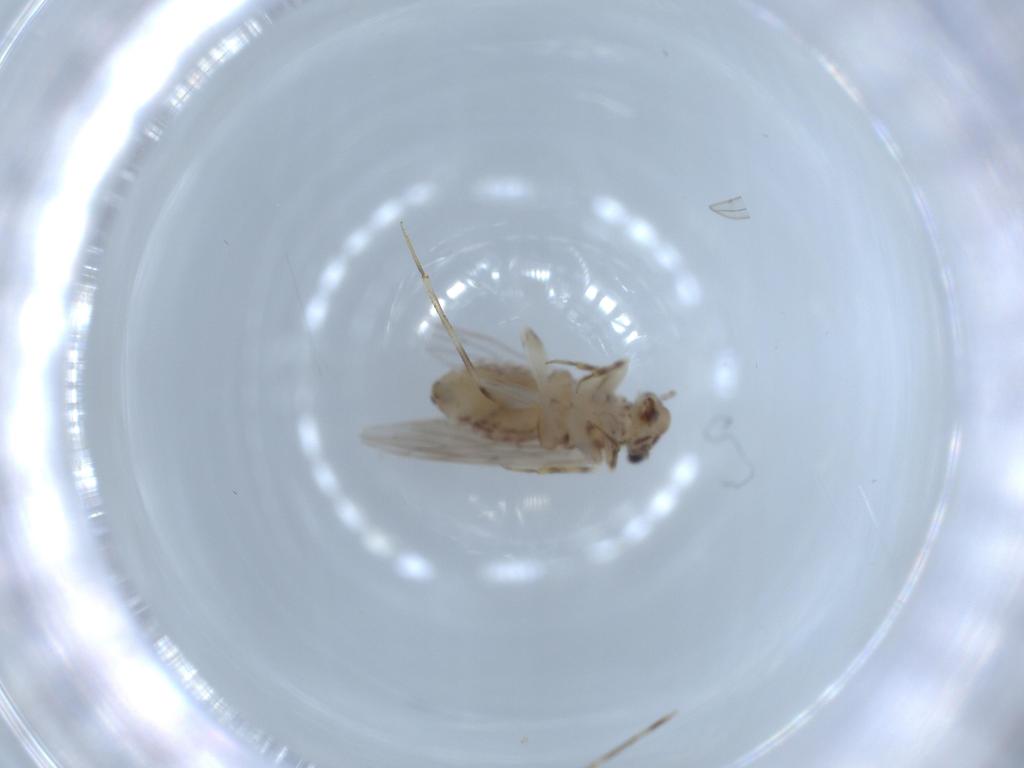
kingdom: Animalia
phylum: Arthropoda
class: Insecta
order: Psocodea
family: Lepidopsocidae
